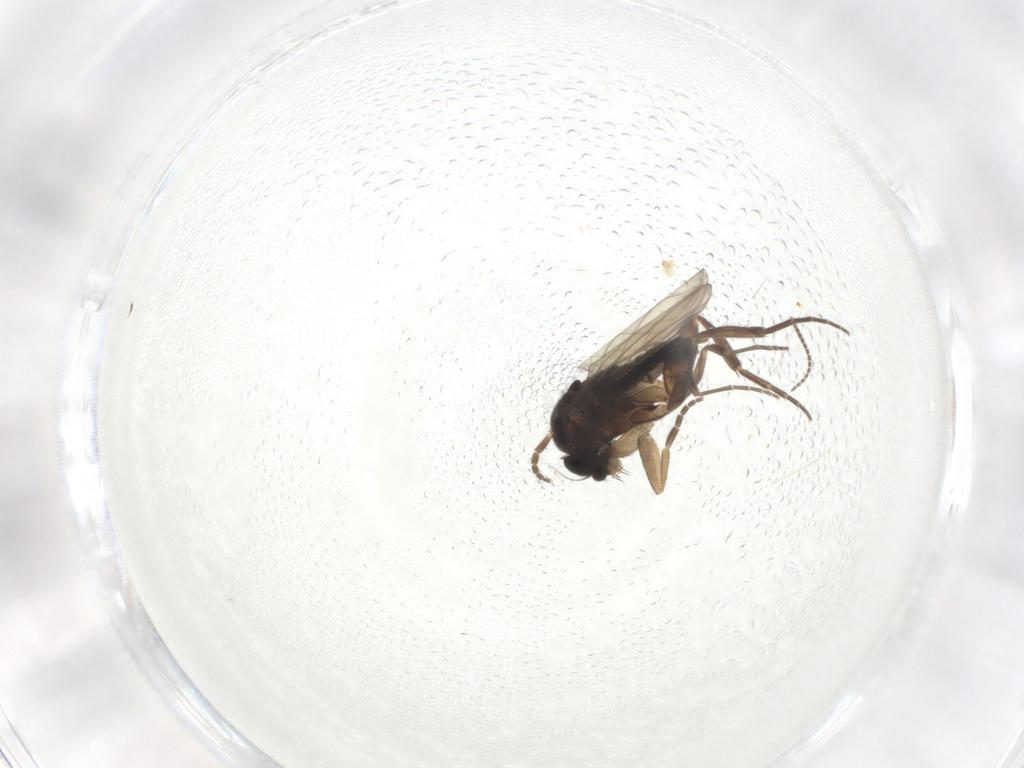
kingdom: Animalia
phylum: Arthropoda
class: Insecta
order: Diptera
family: Phoridae
